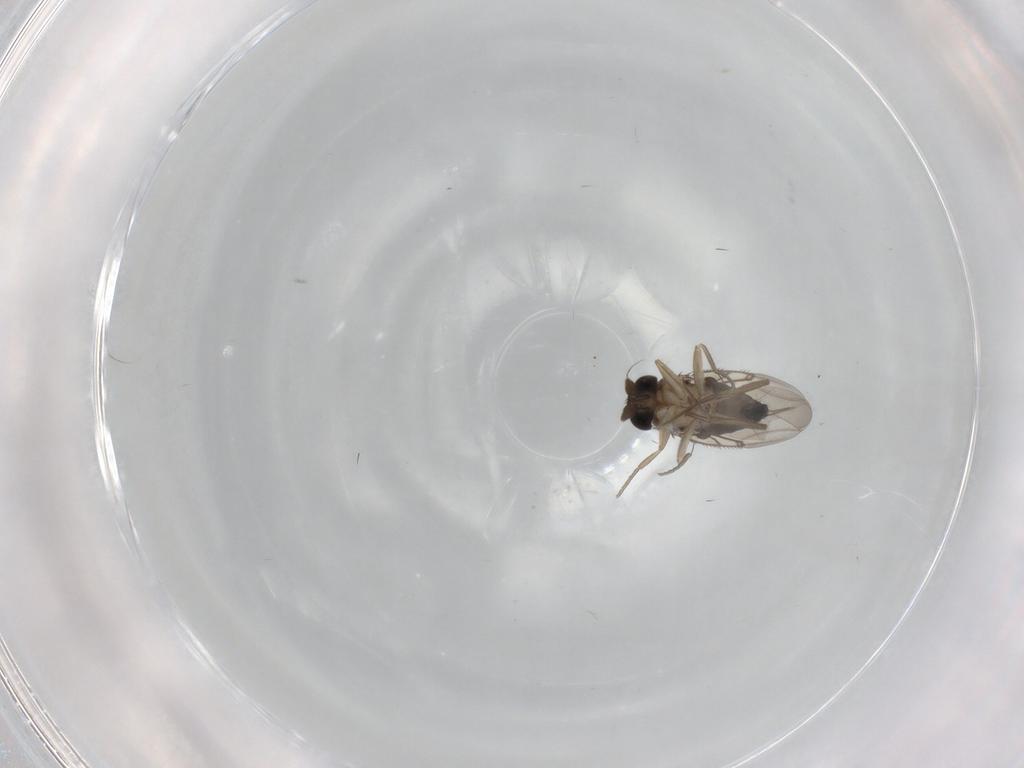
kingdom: Animalia
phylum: Arthropoda
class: Insecta
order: Diptera
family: Phoridae
